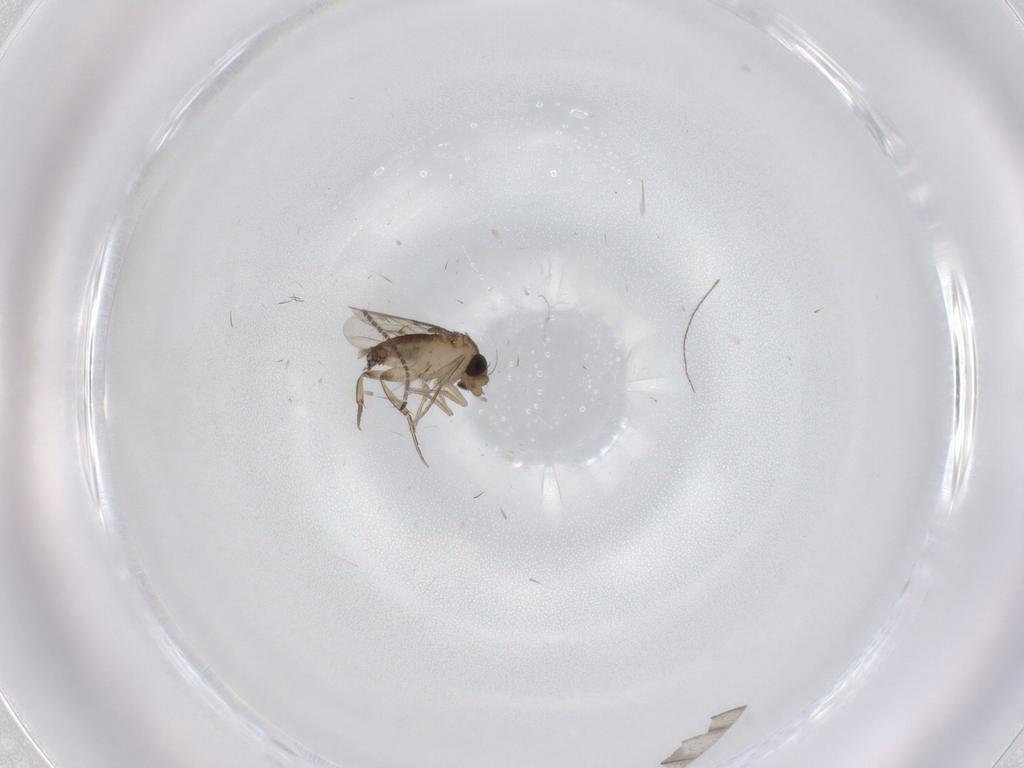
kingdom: Animalia
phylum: Arthropoda
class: Insecta
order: Diptera
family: Phoridae
